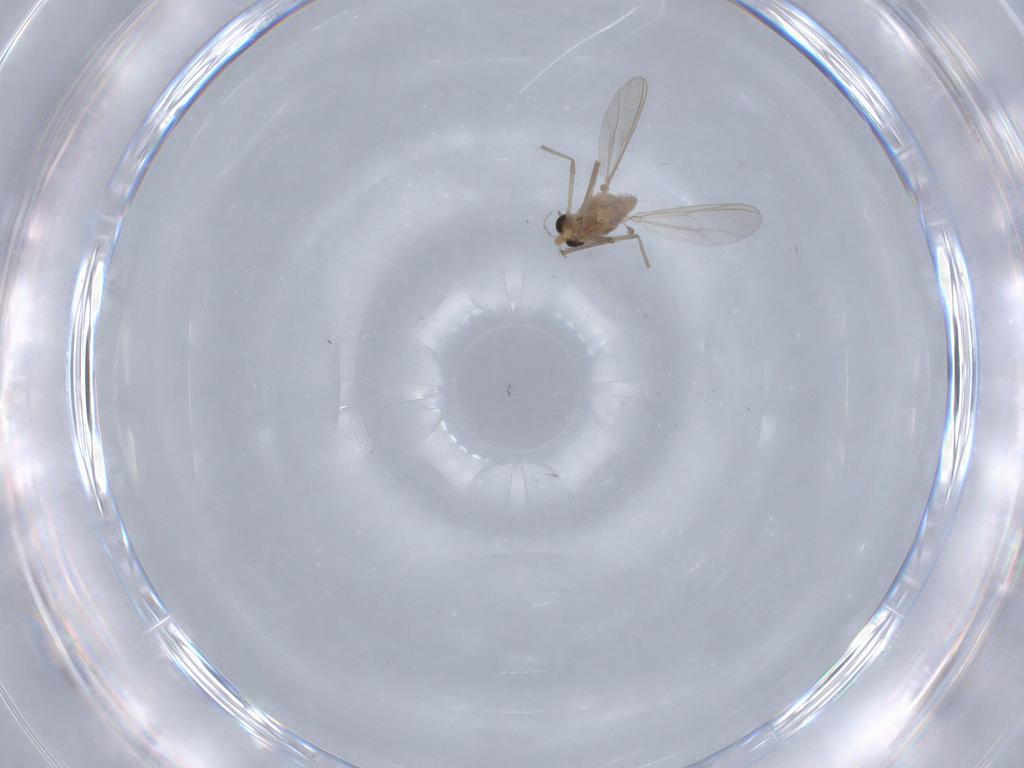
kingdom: Animalia
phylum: Arthropoda
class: Insecta
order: Diptera
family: Chironomidae
